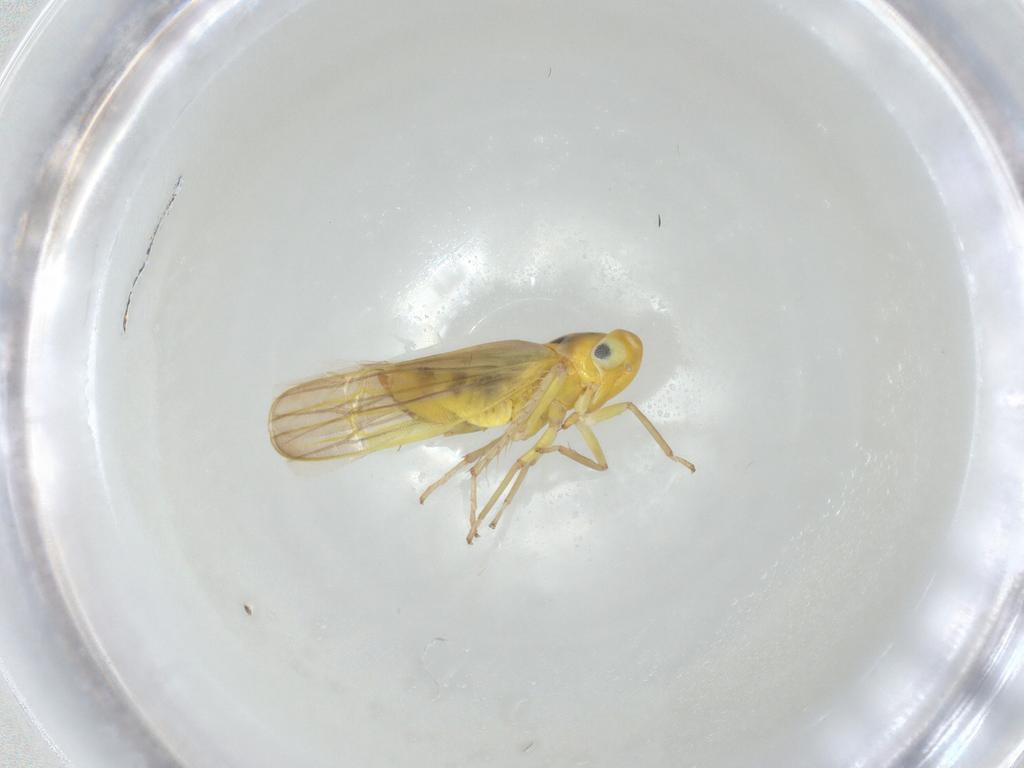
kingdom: Animalia
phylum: Arthropoda
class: Insecta
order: Hemiptera
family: Cicadellidae
